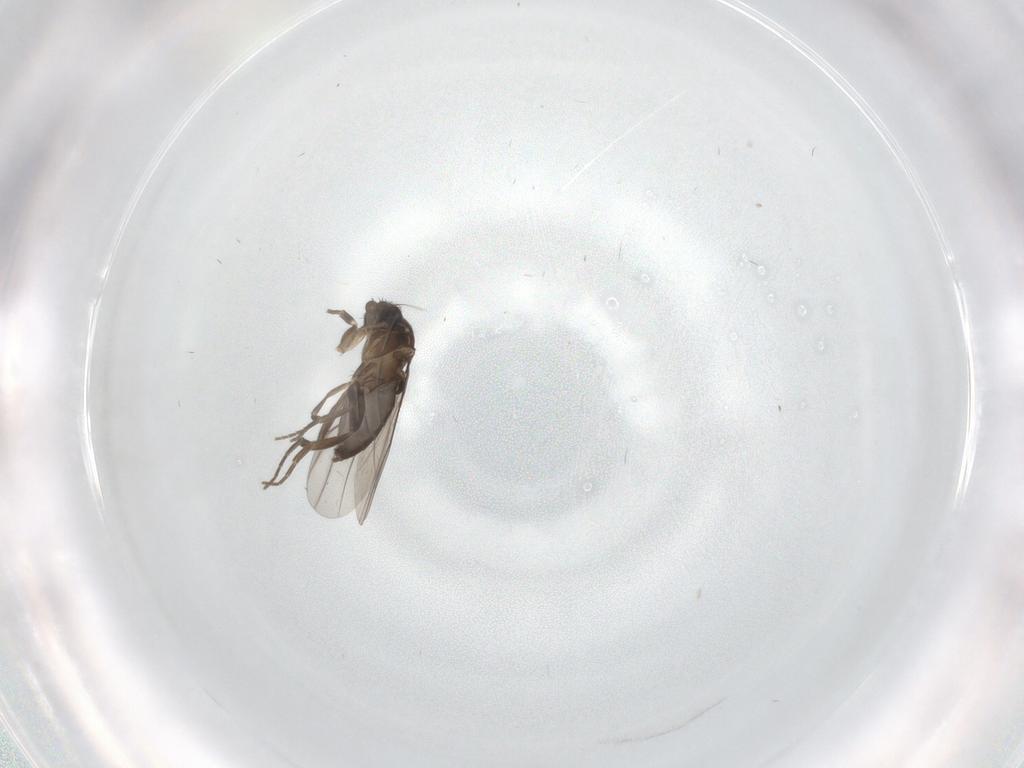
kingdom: Animalia
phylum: Arthropoda
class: Insecta
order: Diptera
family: Phoridae
